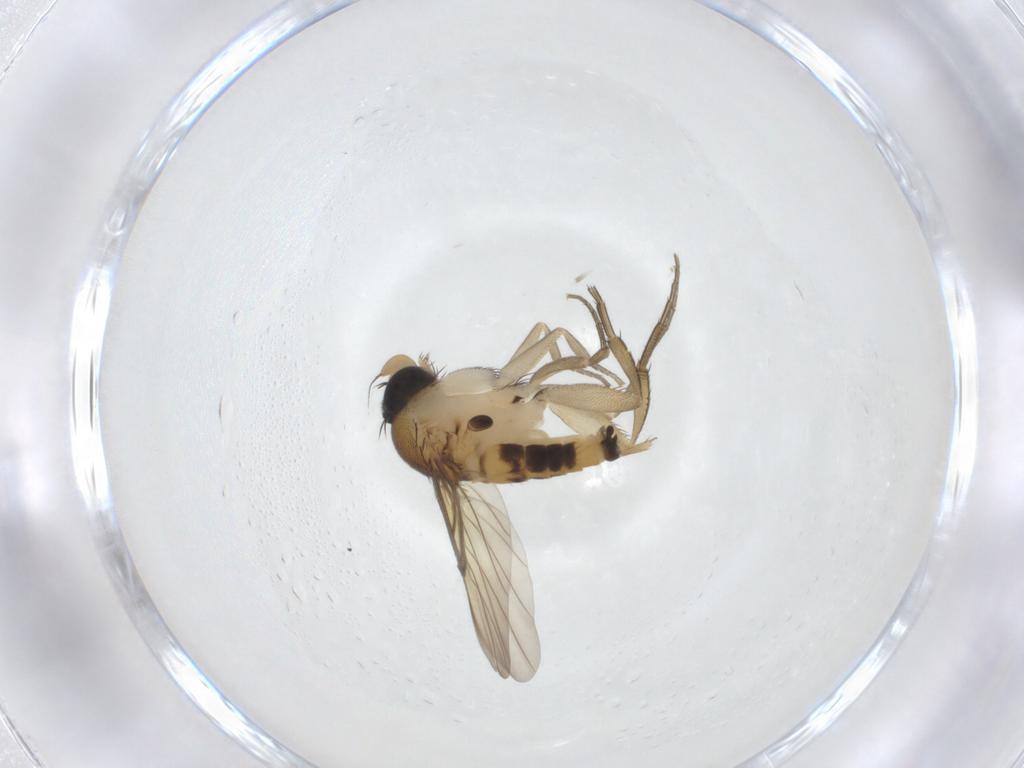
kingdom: Animalia
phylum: Arthropoda
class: Insecta
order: Diptera
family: Phoridae
